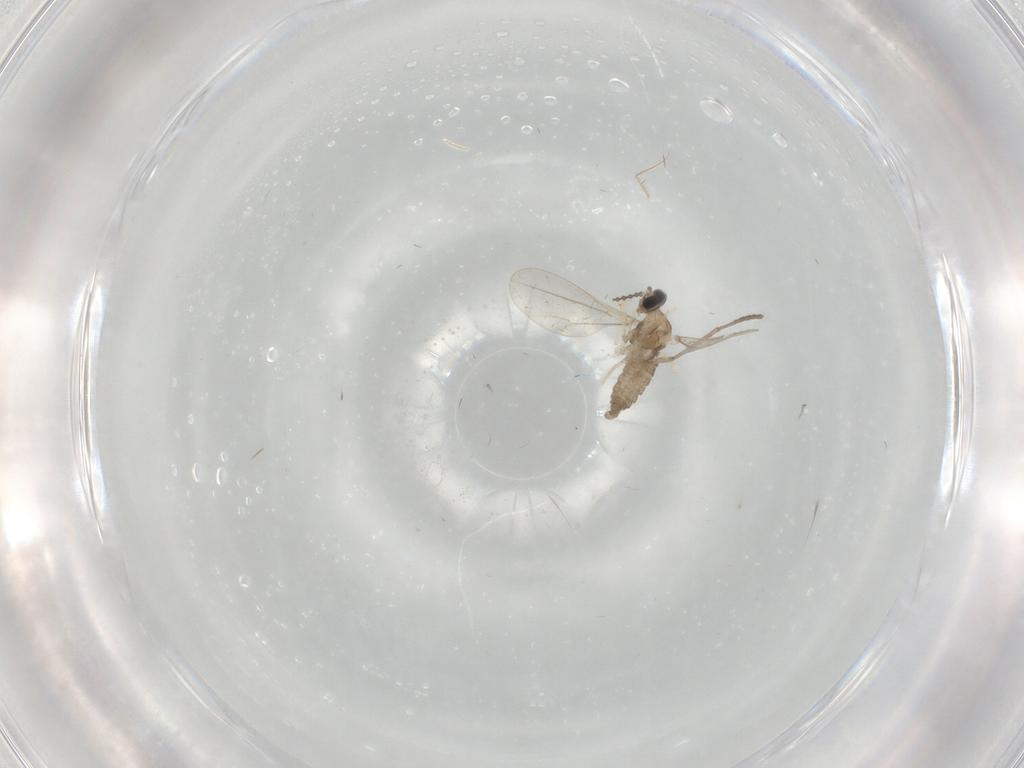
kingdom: Animalia
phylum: Arthropoda
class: Insecta
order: Diptera
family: Cecidomyiidae
